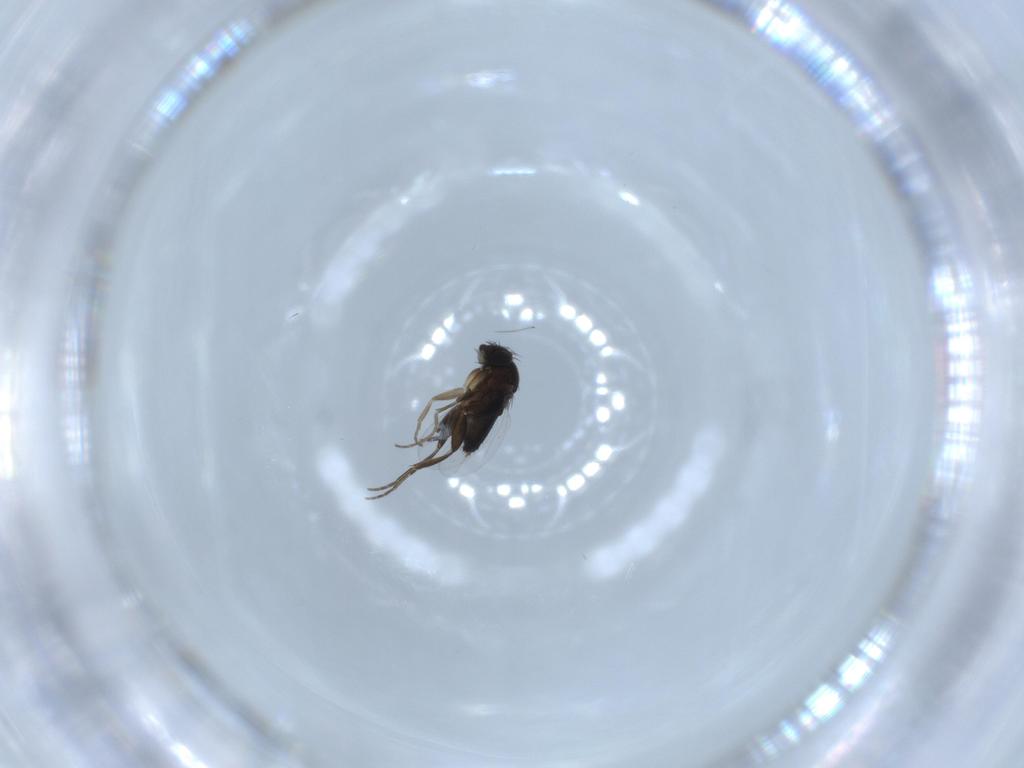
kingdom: Animalia
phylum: Arthropoda
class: Insecta
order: Diptera
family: Phoridae
